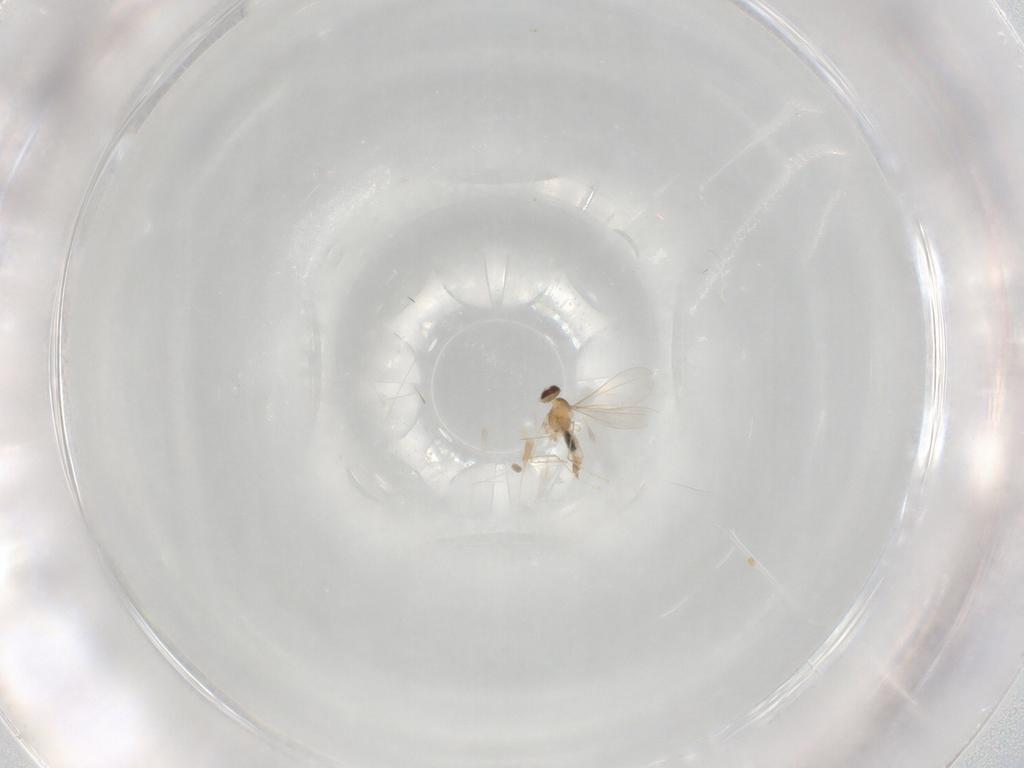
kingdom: Animalia
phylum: Arthropoda
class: Insecta
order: Diptera
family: Cecidomyiidae
